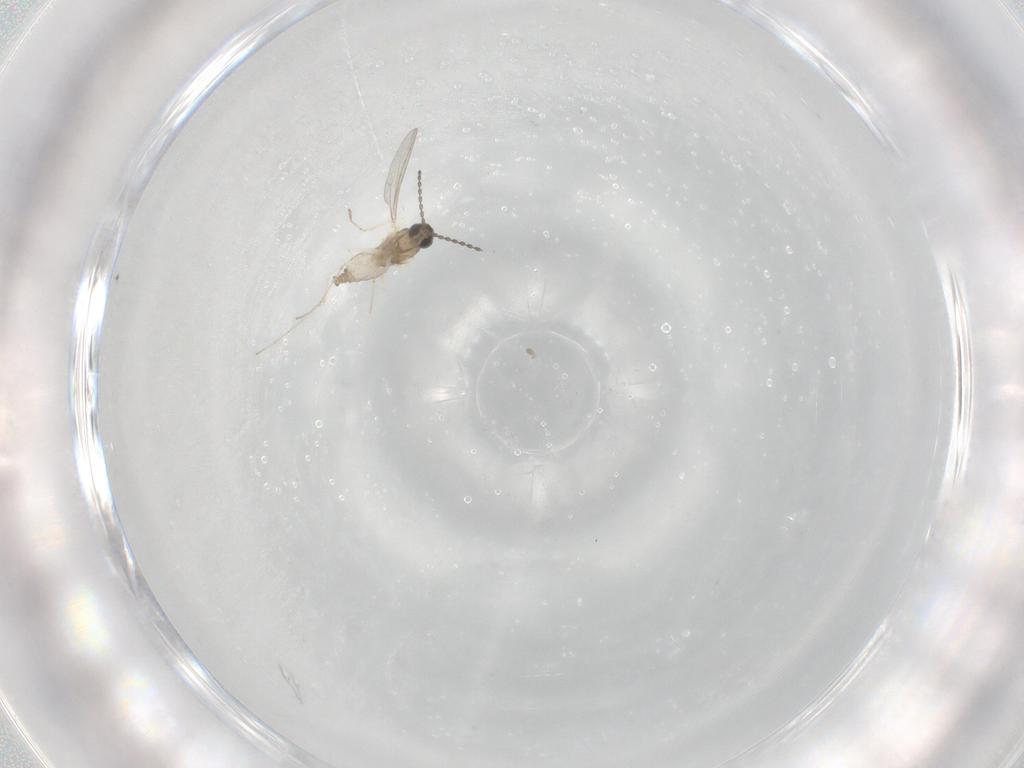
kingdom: Animalia
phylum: Arthropoda
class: Insecta
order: Diptera
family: Cecidomyiidae
